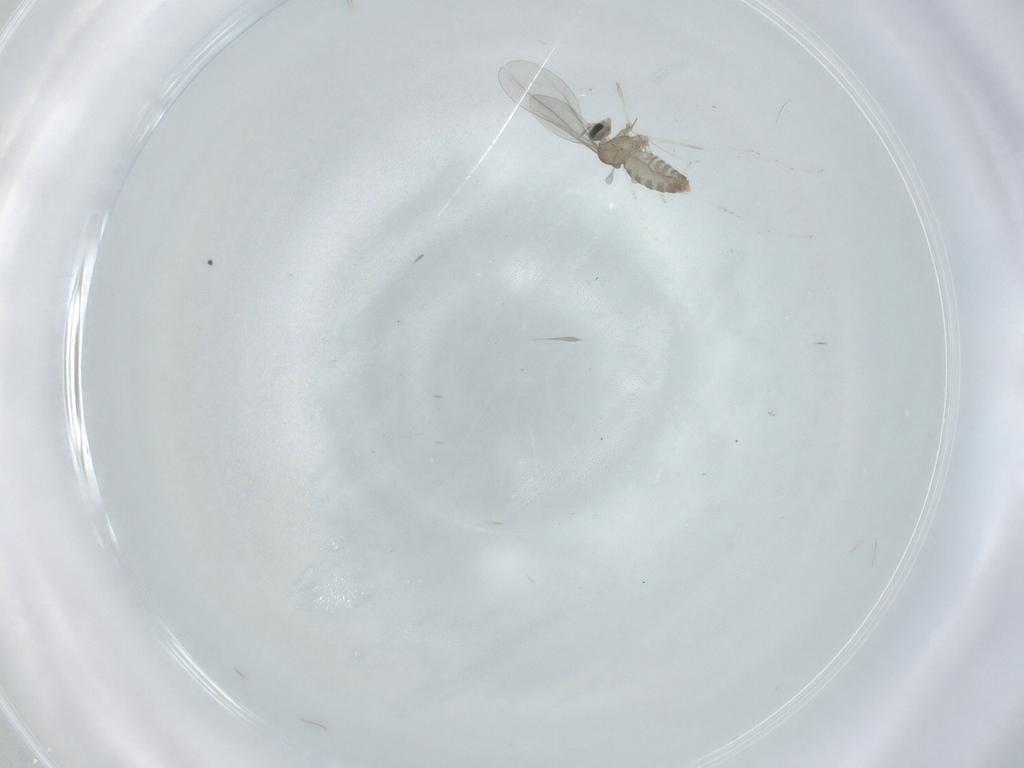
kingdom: Animalia
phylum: Arthropoda
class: Insecta
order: Diptera
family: Cecidomyiidae
